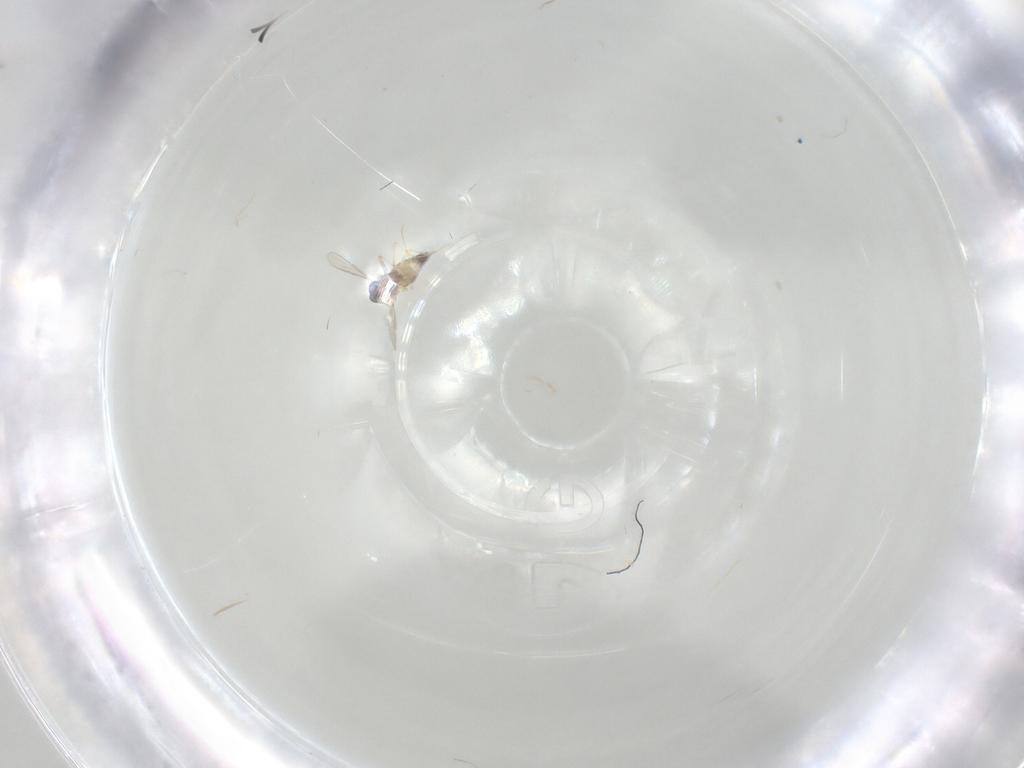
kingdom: Animalia
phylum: Arthropoda
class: Insecta
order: Diptera
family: Chironomidae
